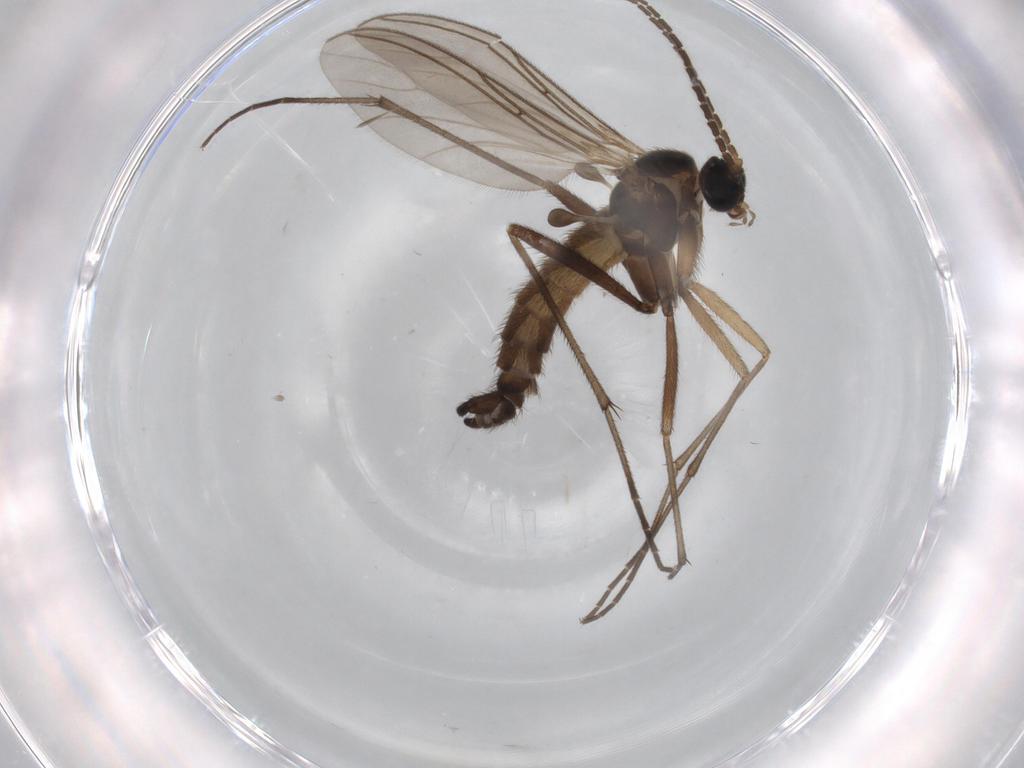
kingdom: Animalia
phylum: Arthropoda
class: Insecta
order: Diptera
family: Sciaridae
